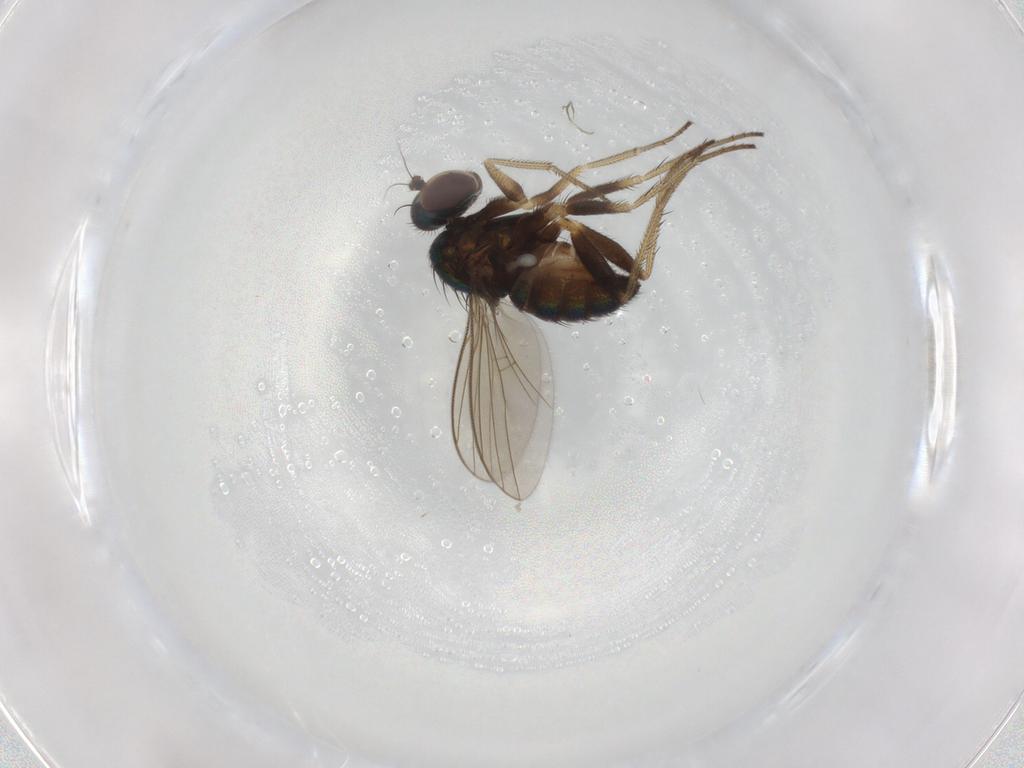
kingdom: Animalia
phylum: Arthropoda
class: Insecta
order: Diptera
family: Dolichopodidae
